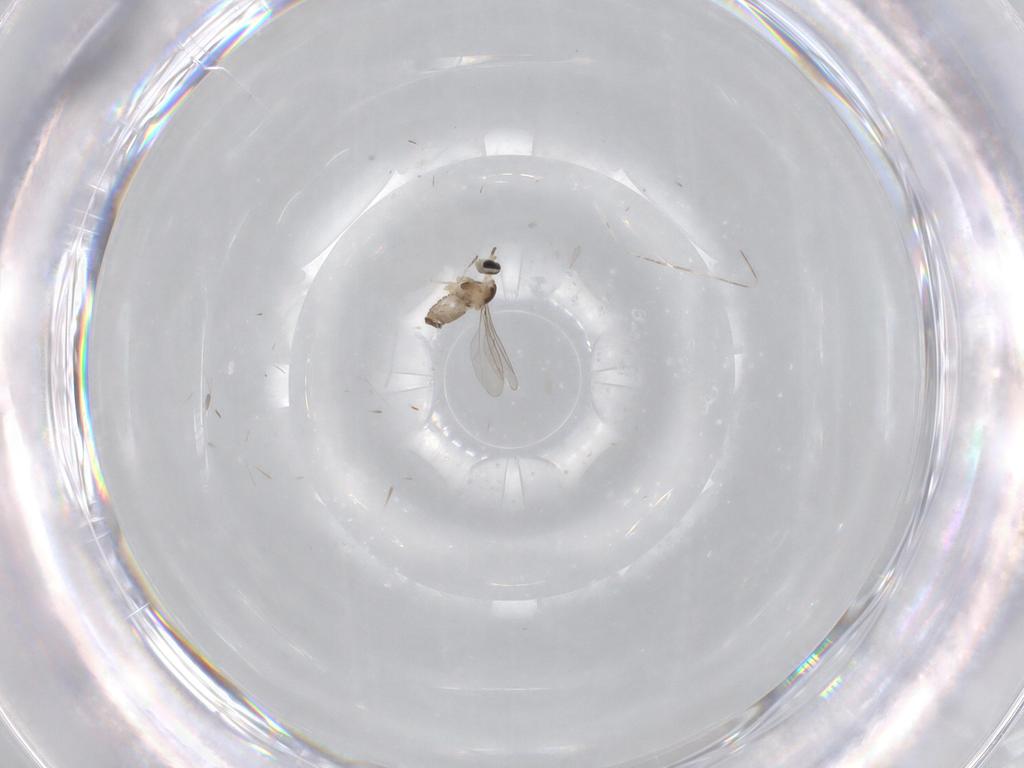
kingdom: Animalia
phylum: Arthropoda
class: Insecta
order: Diptera
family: Cecidomyiidae
